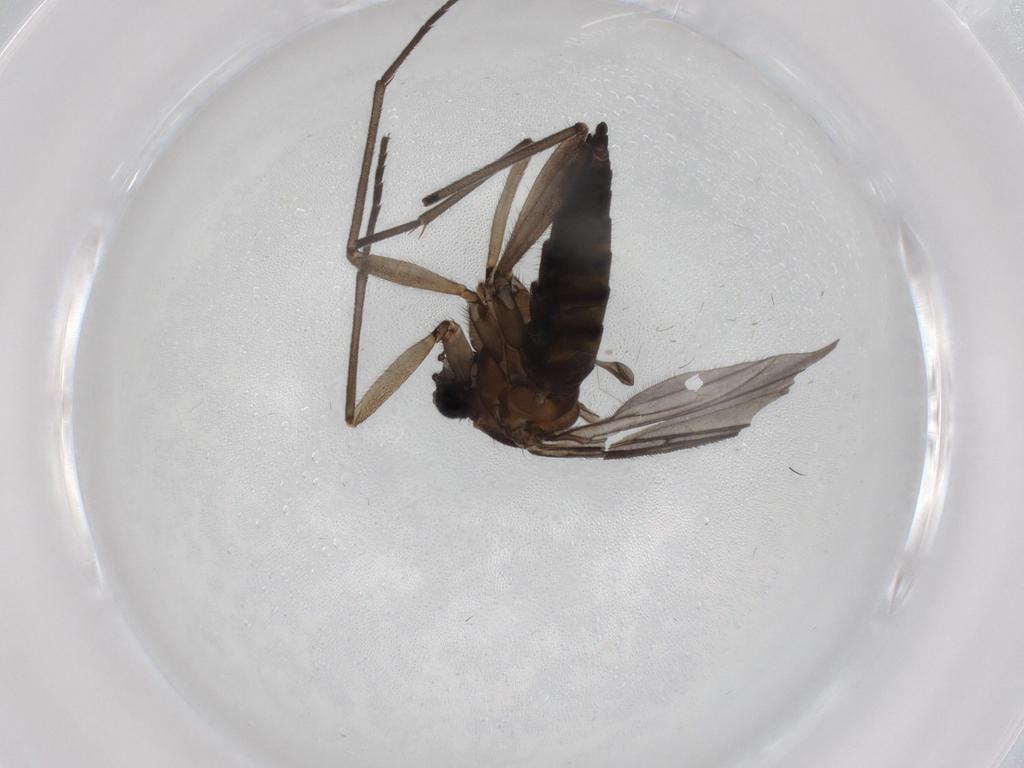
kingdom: Animalia
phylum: Arthropoda
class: Insecta
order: Diptera
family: Sciaridae
